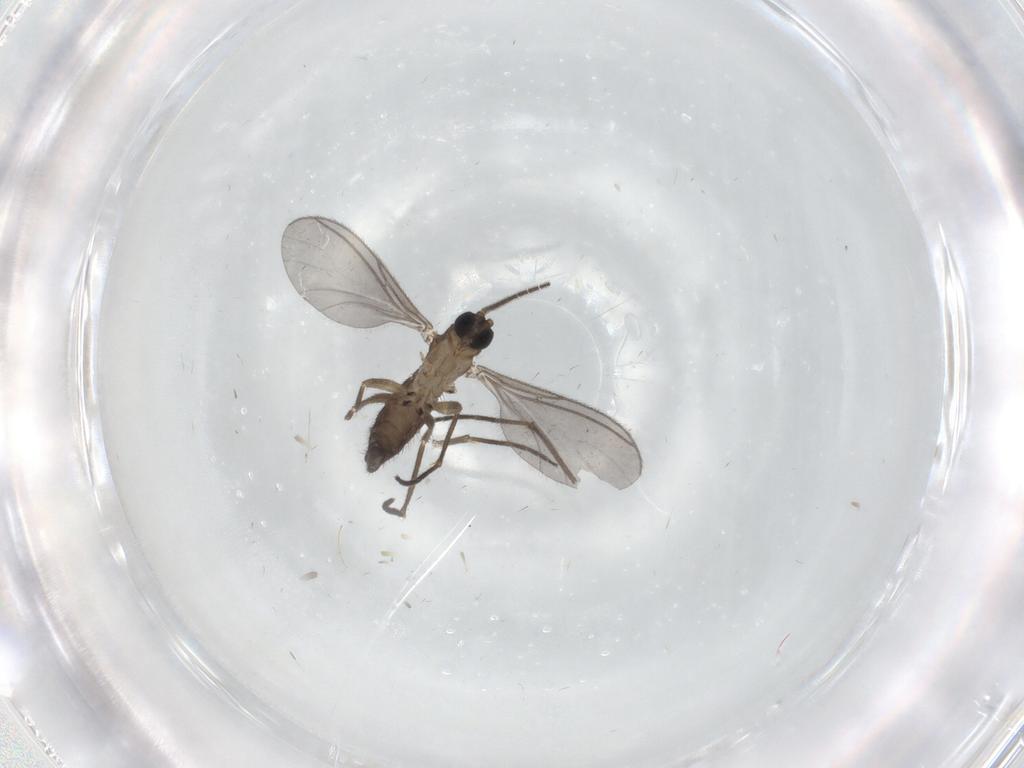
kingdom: Animalia
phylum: Arthropoda
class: Insecta
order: Diptera
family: Sciaridae
